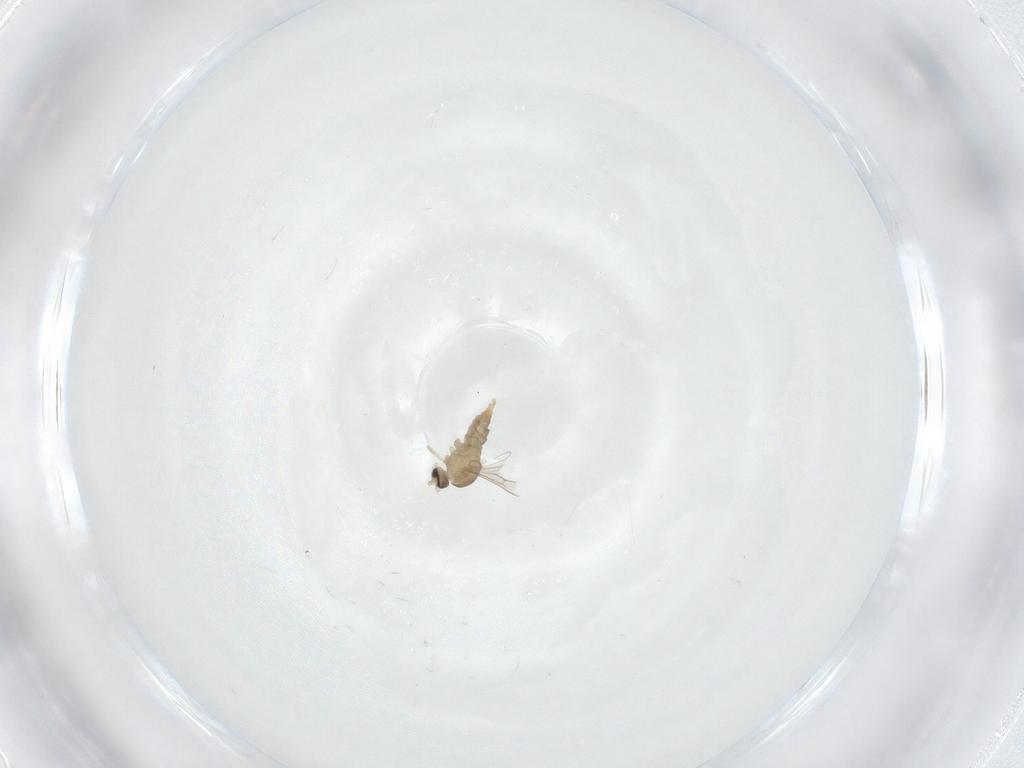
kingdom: Animalia
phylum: Arthropoda
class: Insecta
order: Diptera
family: Cecidomyiidae
